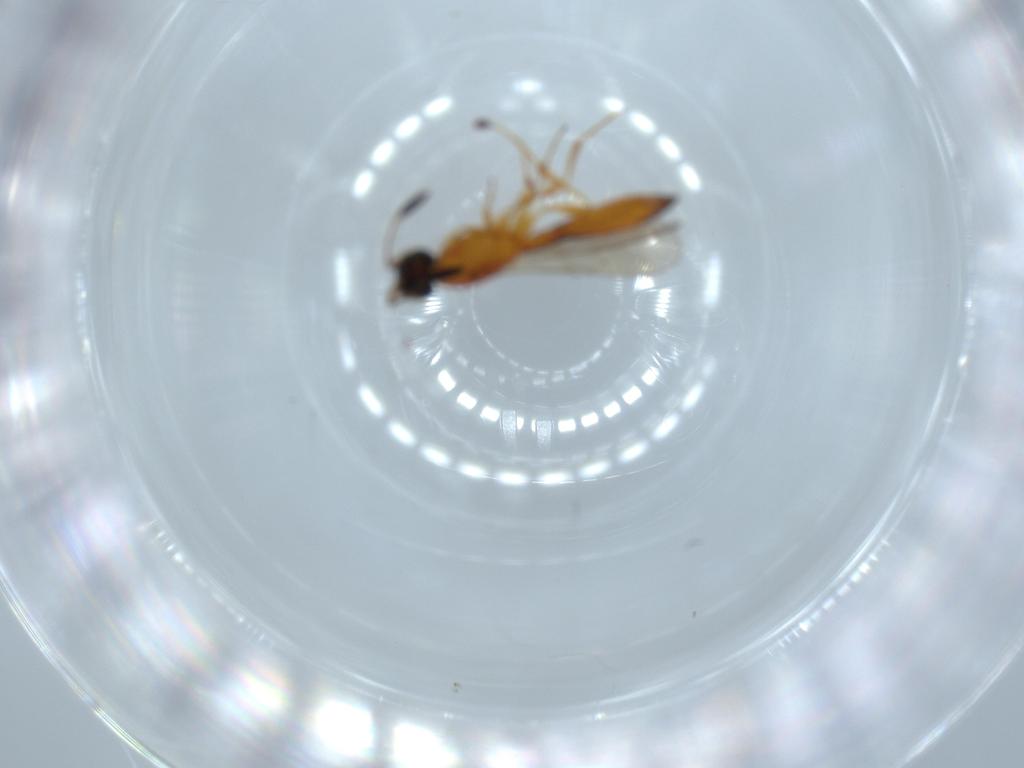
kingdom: Animalia
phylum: Arthropoda
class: Insecta
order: Hymenoptera
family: Scelionidae
